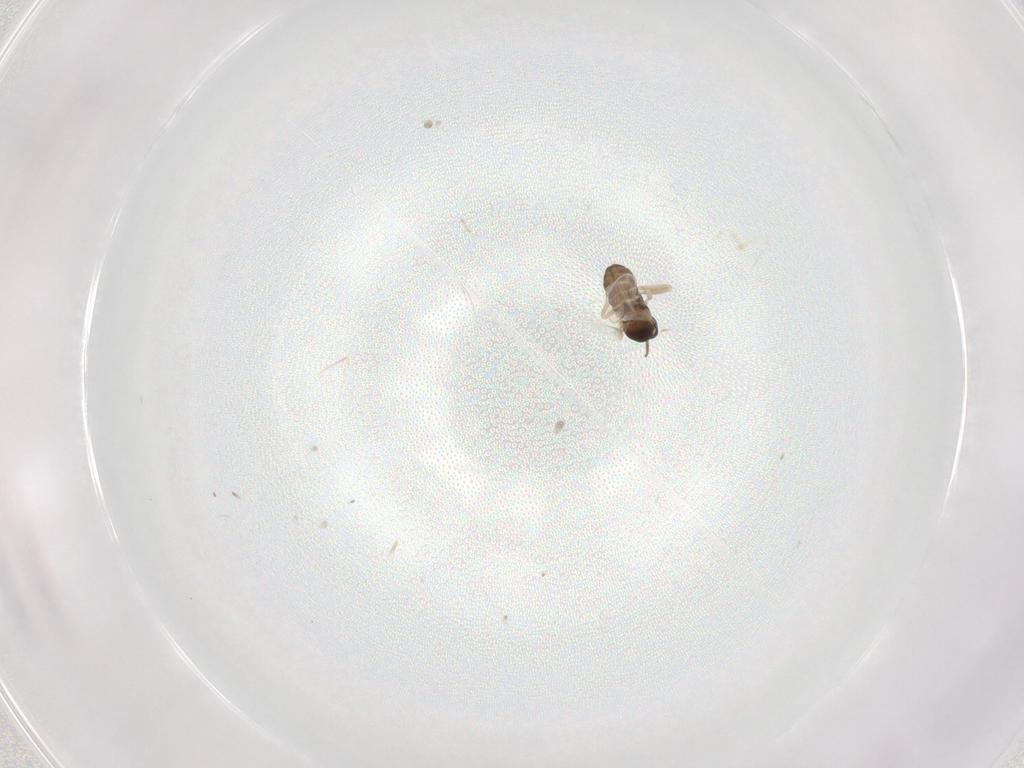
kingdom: Animalia
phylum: Arthropoda
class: Insecta
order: Diptera
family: Cecidomyiidae
